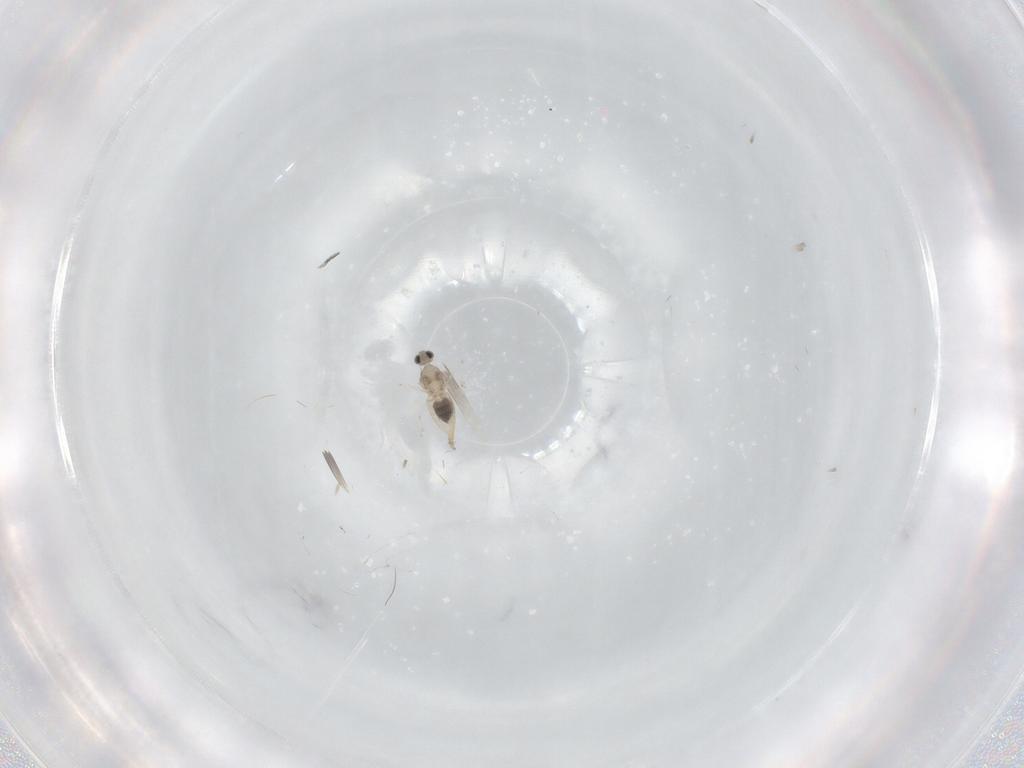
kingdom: Animalia
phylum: Arthropoda
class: Insecta
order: Diptera
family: Cecidomyiidae
